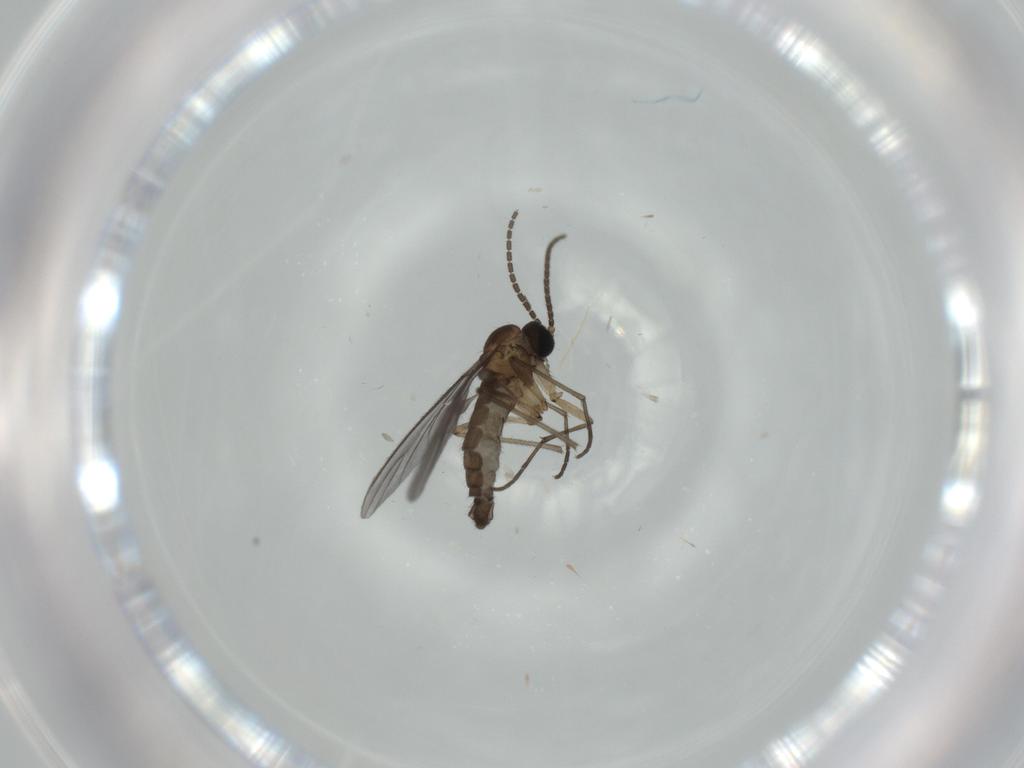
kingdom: Animalia
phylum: Arthropoda
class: Insecta
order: Diptera
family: Sciaridae
